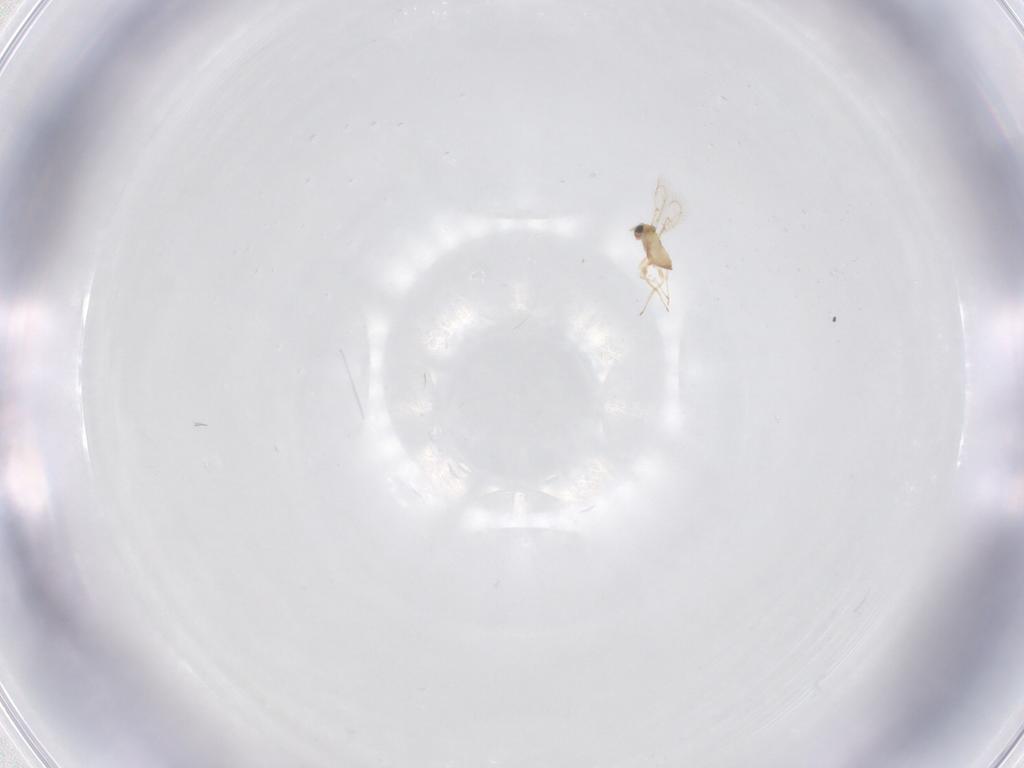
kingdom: Animalia
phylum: Arthropoda
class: Insecta
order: Hymenoptera
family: Trichogrammatidae
